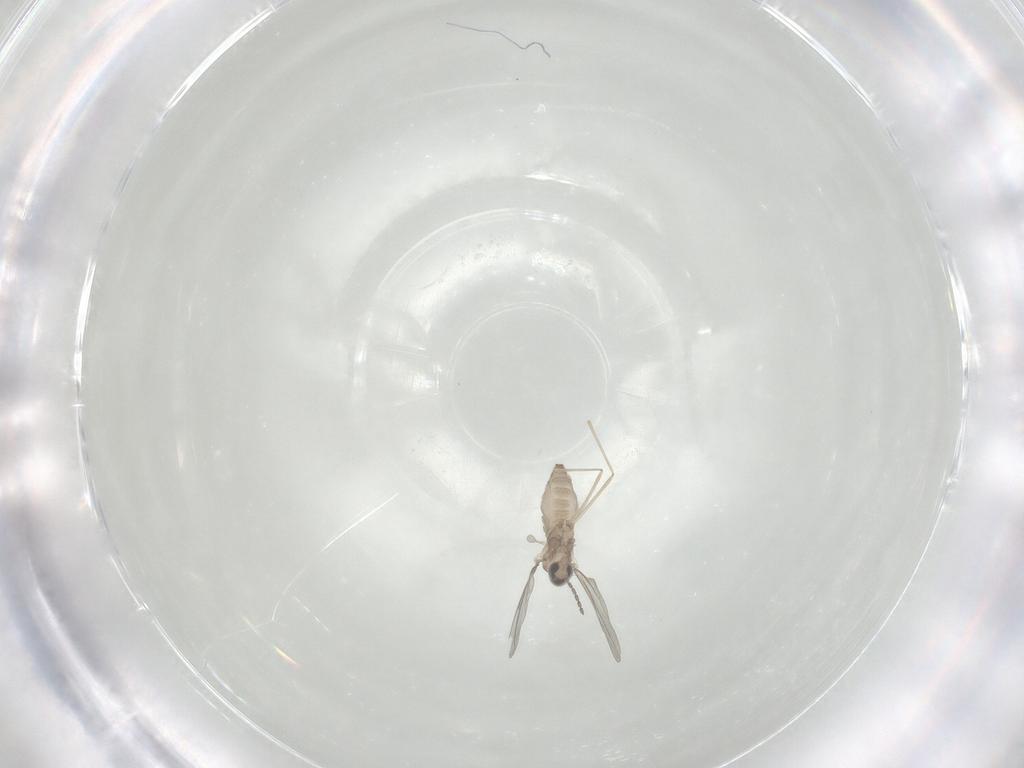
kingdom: Animalia
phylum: Arthropoda
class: Insecta
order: Diptera
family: Cecidomyiidae
